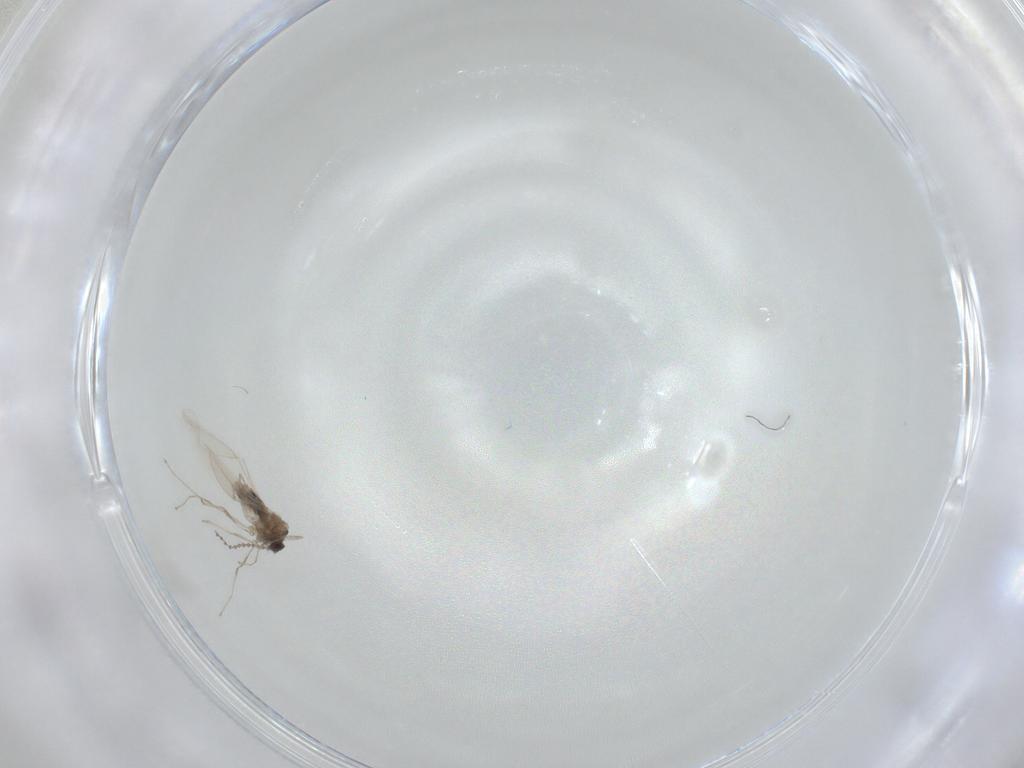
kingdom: Animalia
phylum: Arthropoda
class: Insecta
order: Diptera
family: Cecidomyiidae
